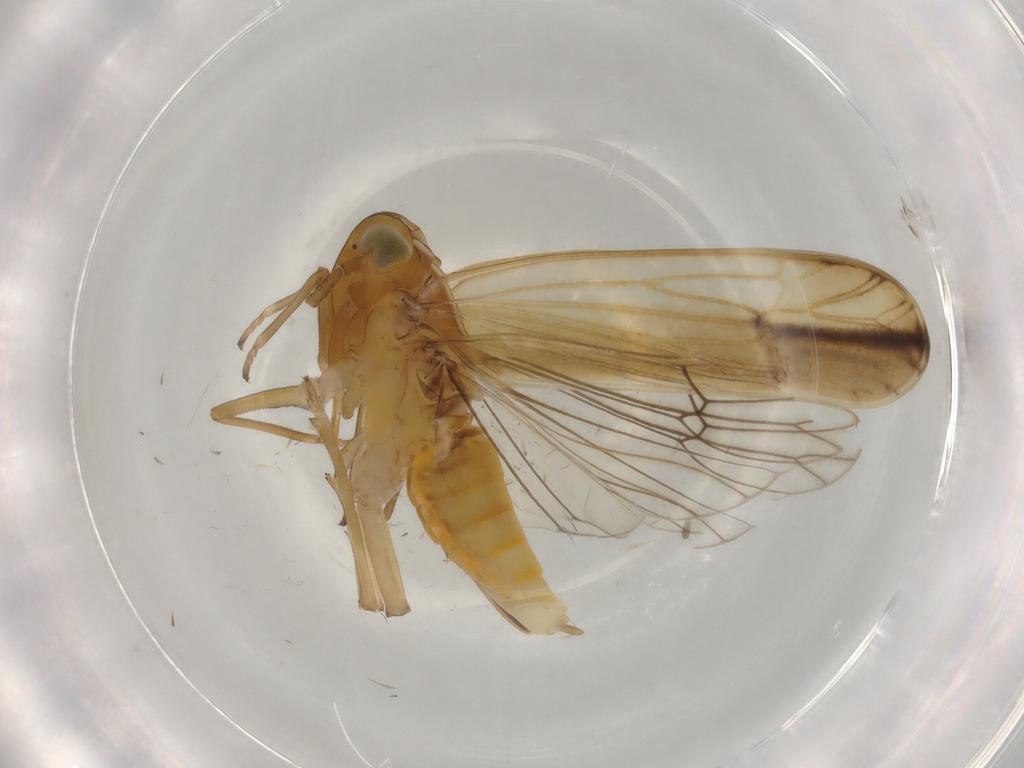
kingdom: Animalia
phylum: Arthropoda
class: Insecta
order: Hemiptera
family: Delphacidae
